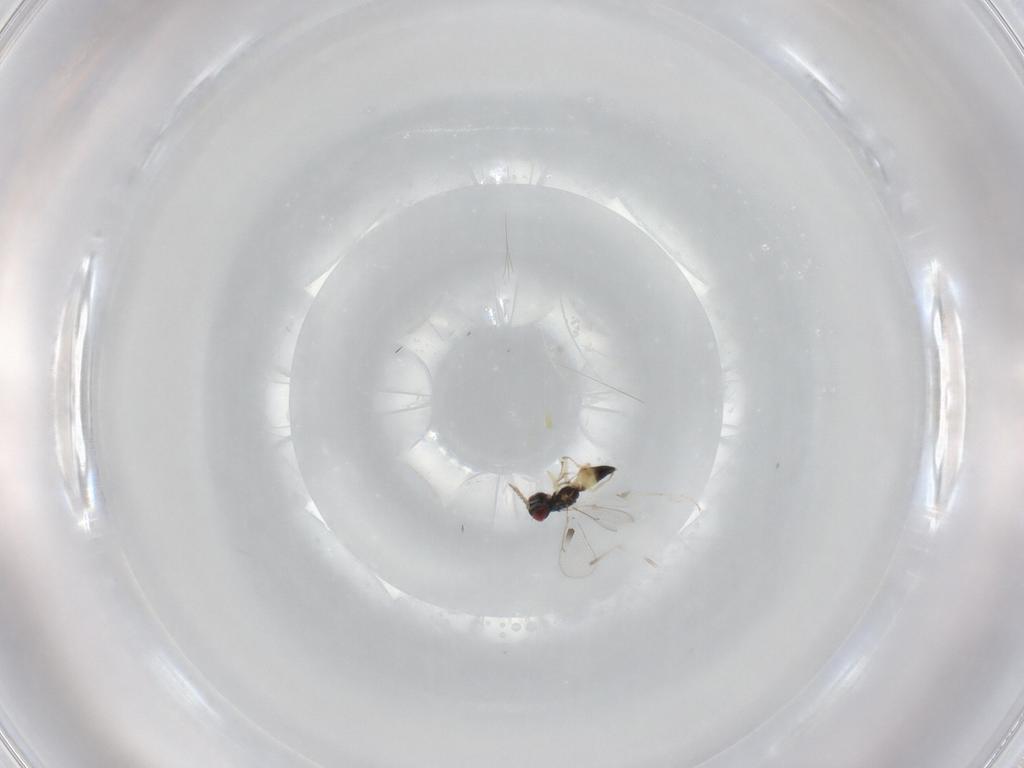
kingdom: Animalia
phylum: Arthropoda
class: Insecta
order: Hymenoptera
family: Eulophidae
